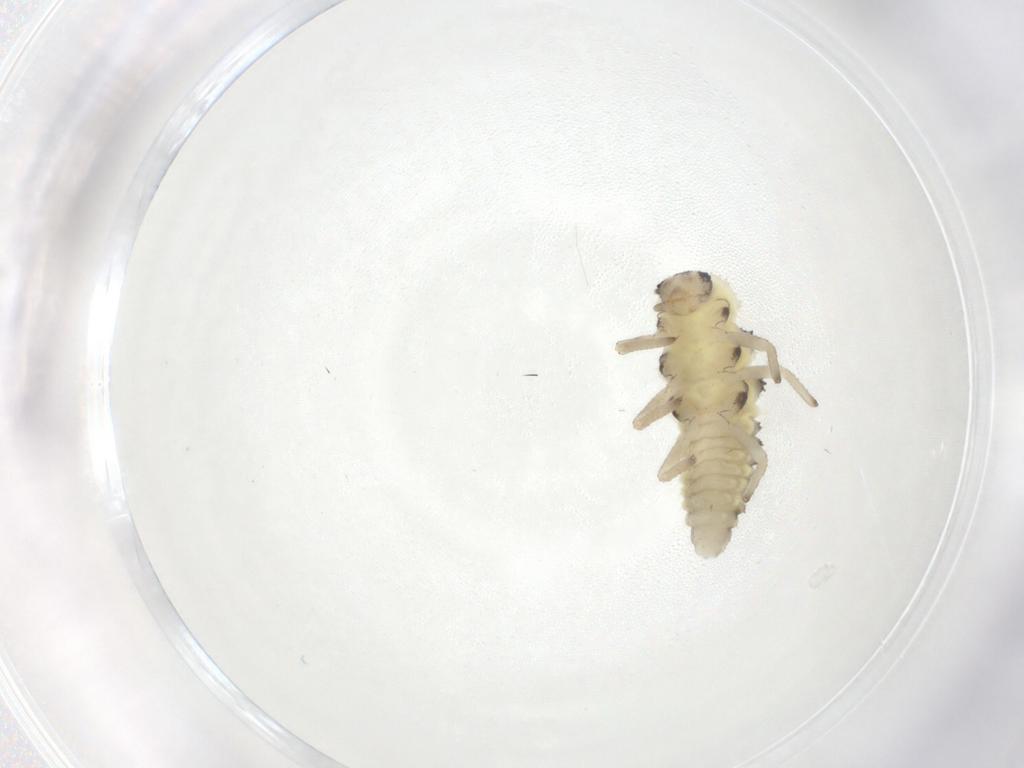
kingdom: Animalia
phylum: Arthropoda
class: Insecta
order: Coleoptera
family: Coccinellidae
